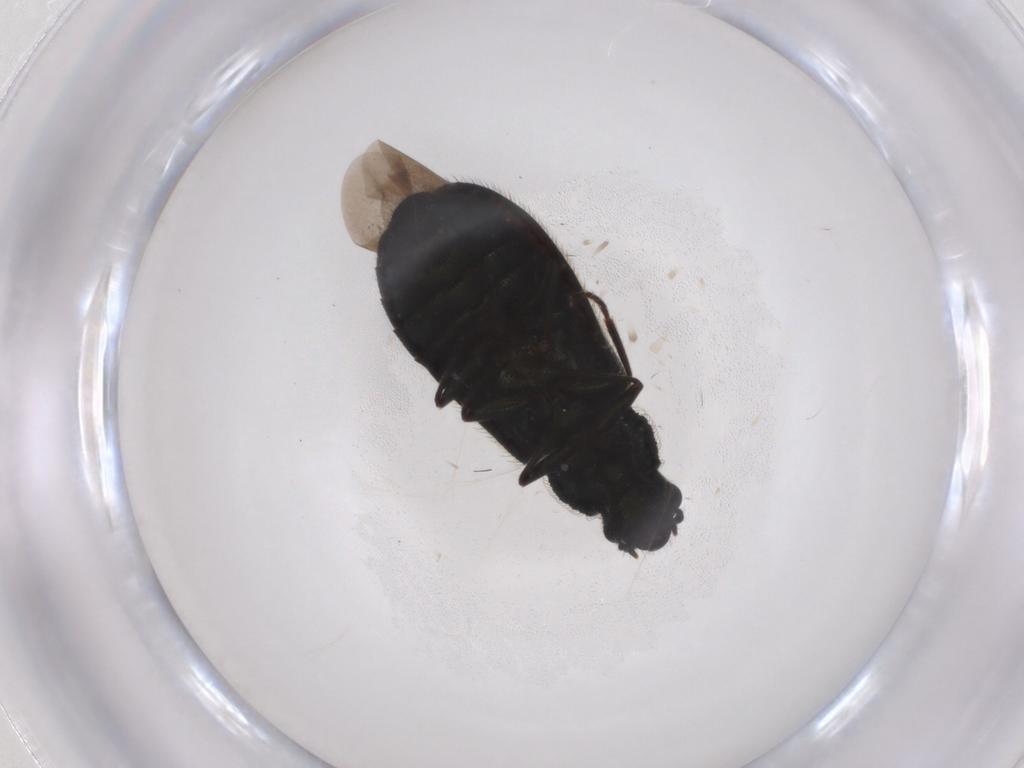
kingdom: Animalia
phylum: Arthropoda
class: Insecta
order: Coleoptera
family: Melyridae
